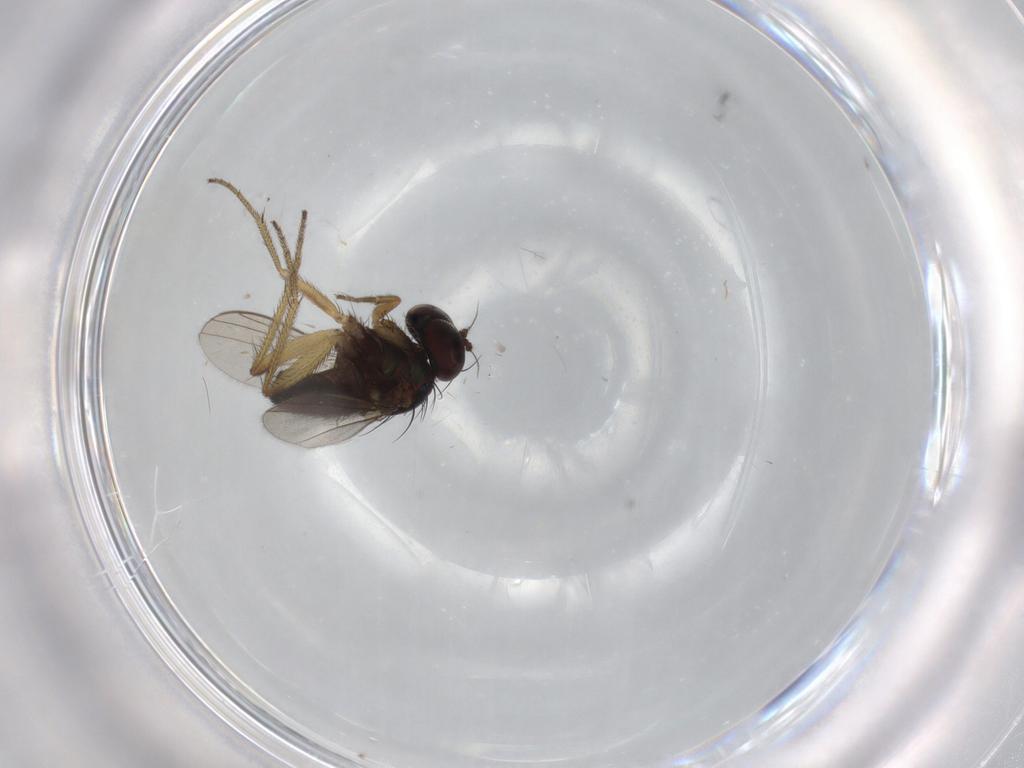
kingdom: Animalia
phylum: Arthropoda
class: Insecta
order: Diptera
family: Dolichopodidae
